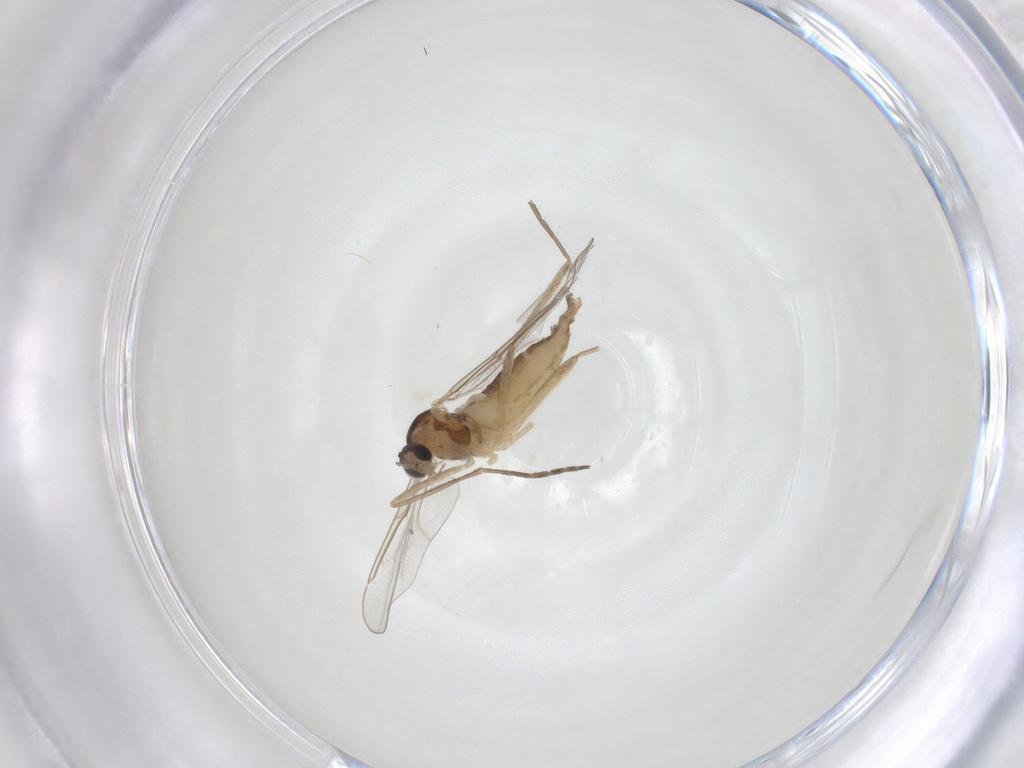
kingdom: Animalia
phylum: Arthropoda
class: Insecta
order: Diptera
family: Cecidomyiidae
